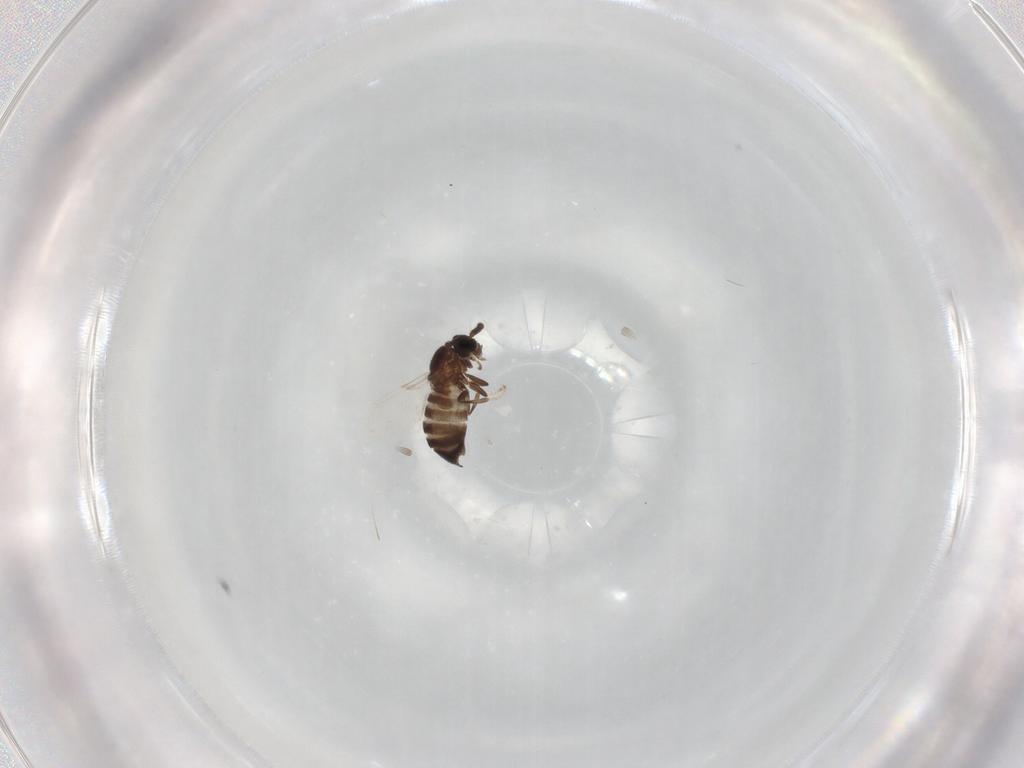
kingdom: Animalia
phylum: Arthropoda
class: Insecta
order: Diptera
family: Scatopsidae
